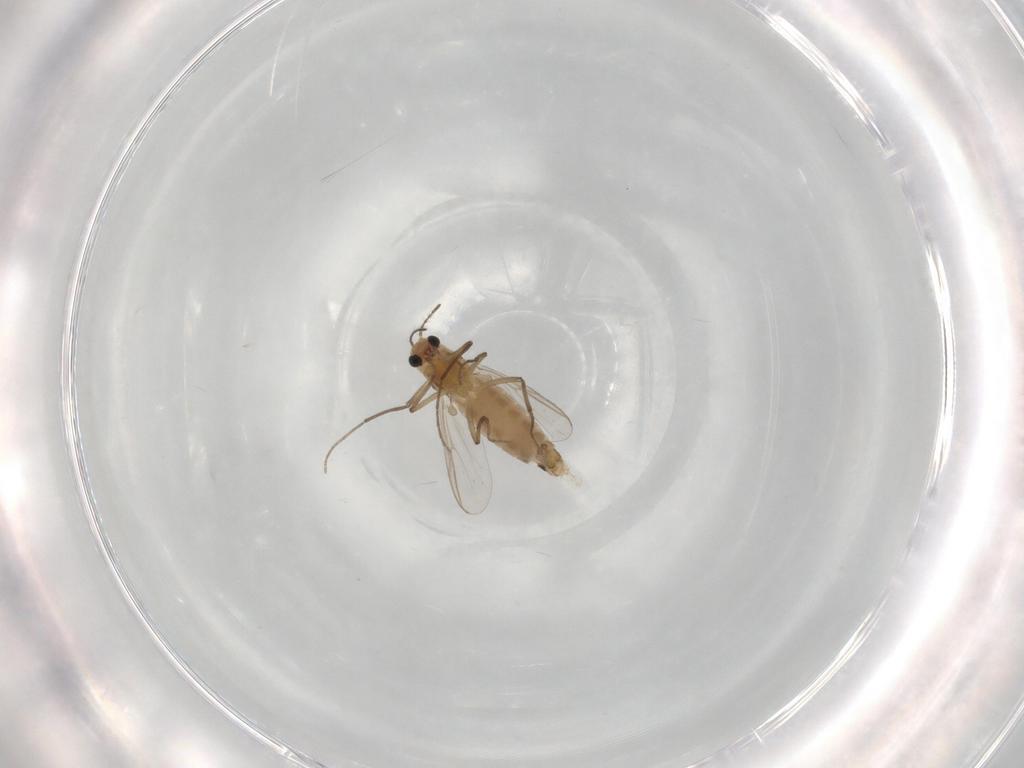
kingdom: Animalia
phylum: Arthropoda
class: Insecta
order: Diptera
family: Chironomidae
